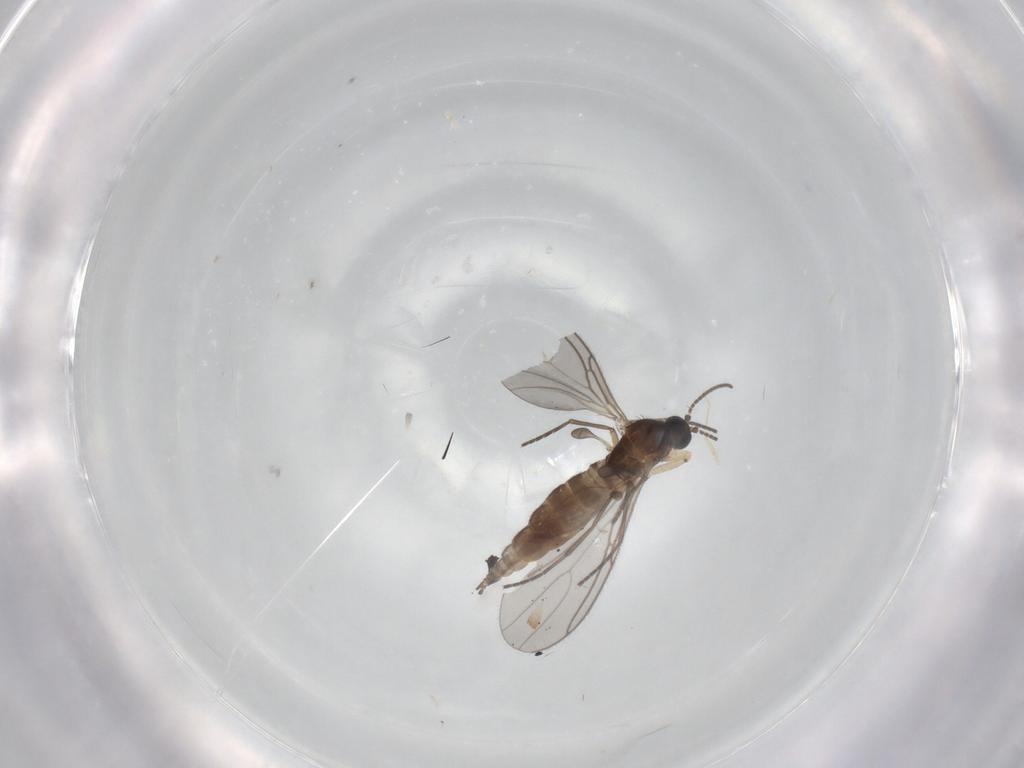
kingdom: Animalia
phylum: Arthropoda
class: Insecta
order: Diptera
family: Sciaridae
